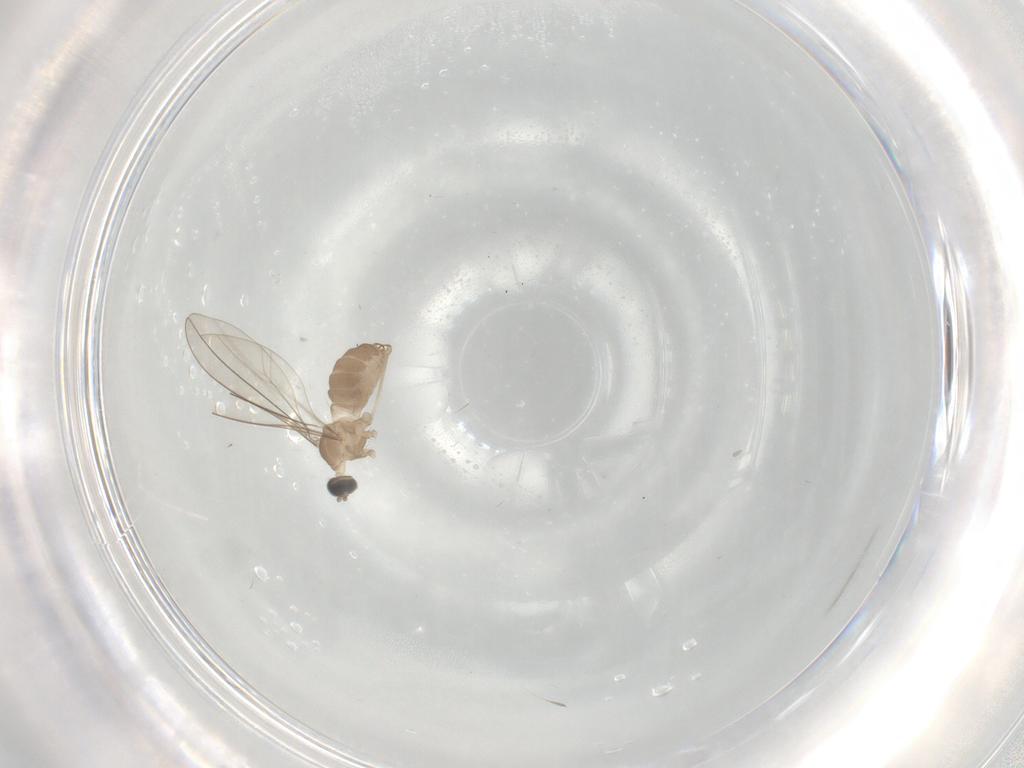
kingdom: Animalia
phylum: Arthropoda
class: Insecta
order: Diptera
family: Cecidomyiidae
